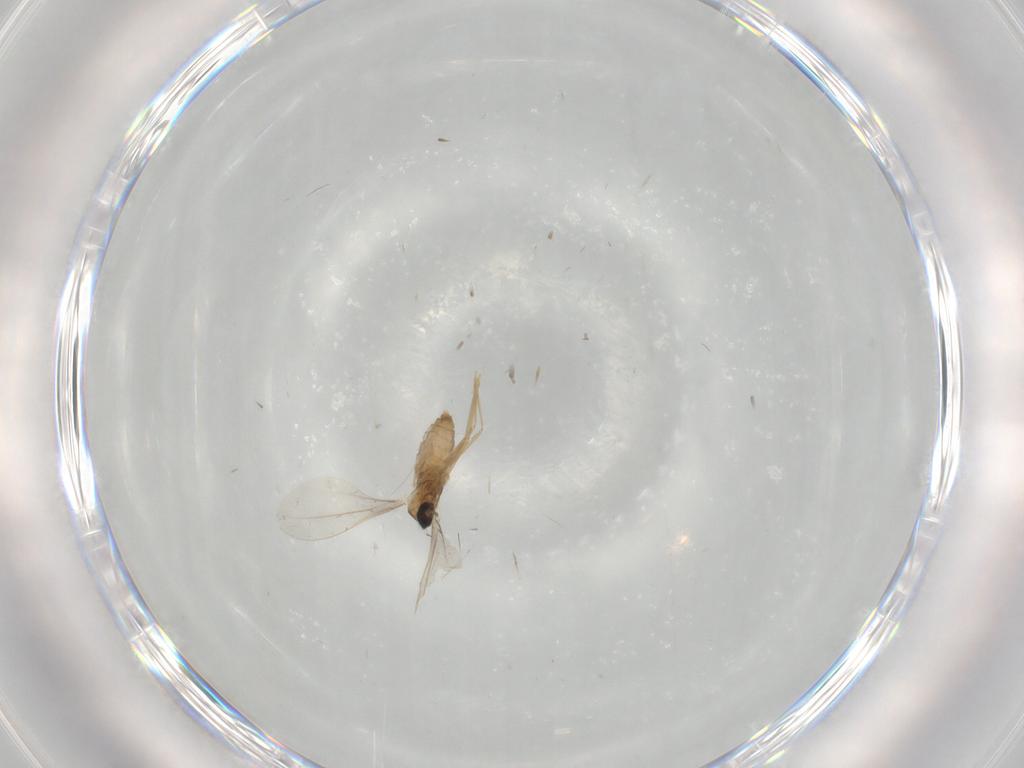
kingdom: Animalia
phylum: Arthropoda
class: Insecta
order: Diptera
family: Cecidomyiidae
